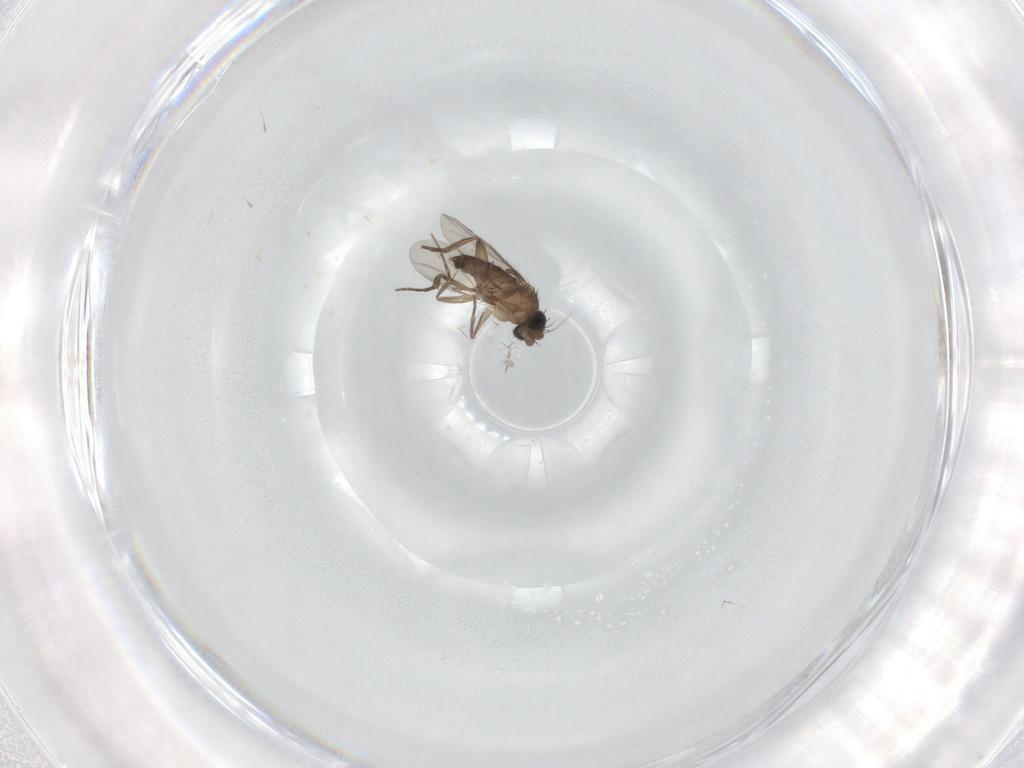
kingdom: Animalia
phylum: Arthropoda
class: Insecta
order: Diptera
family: Phoridae
